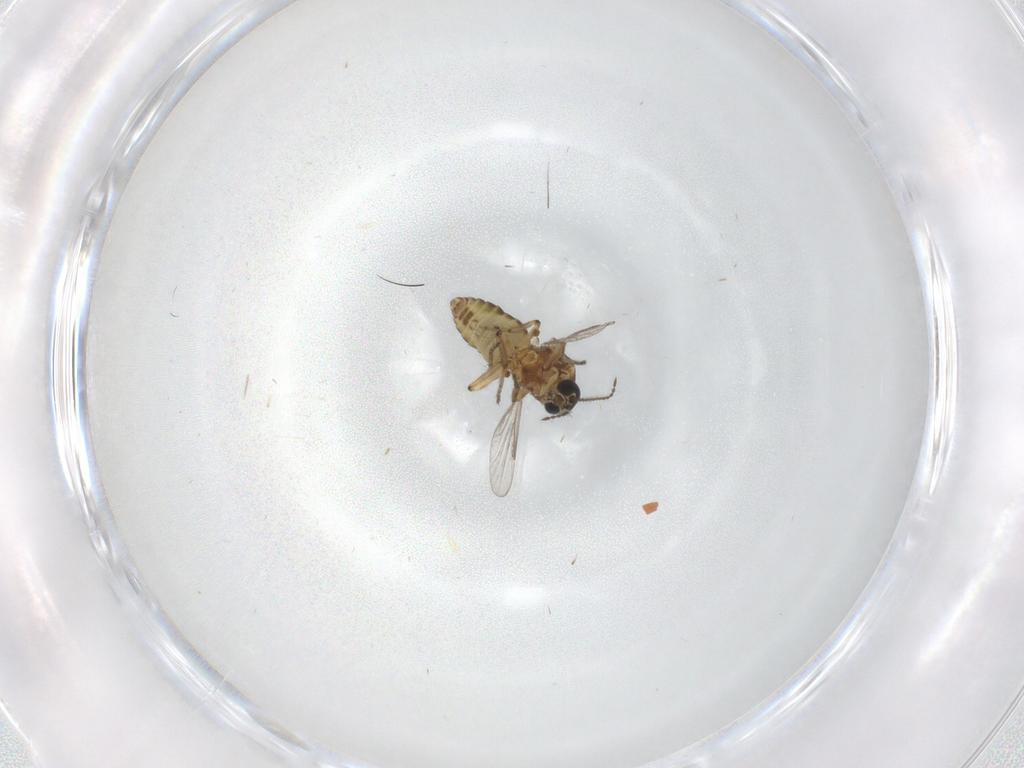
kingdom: Animalia
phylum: Arthropoda
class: Insecta
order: Diptera
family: Ceratopogonidae
